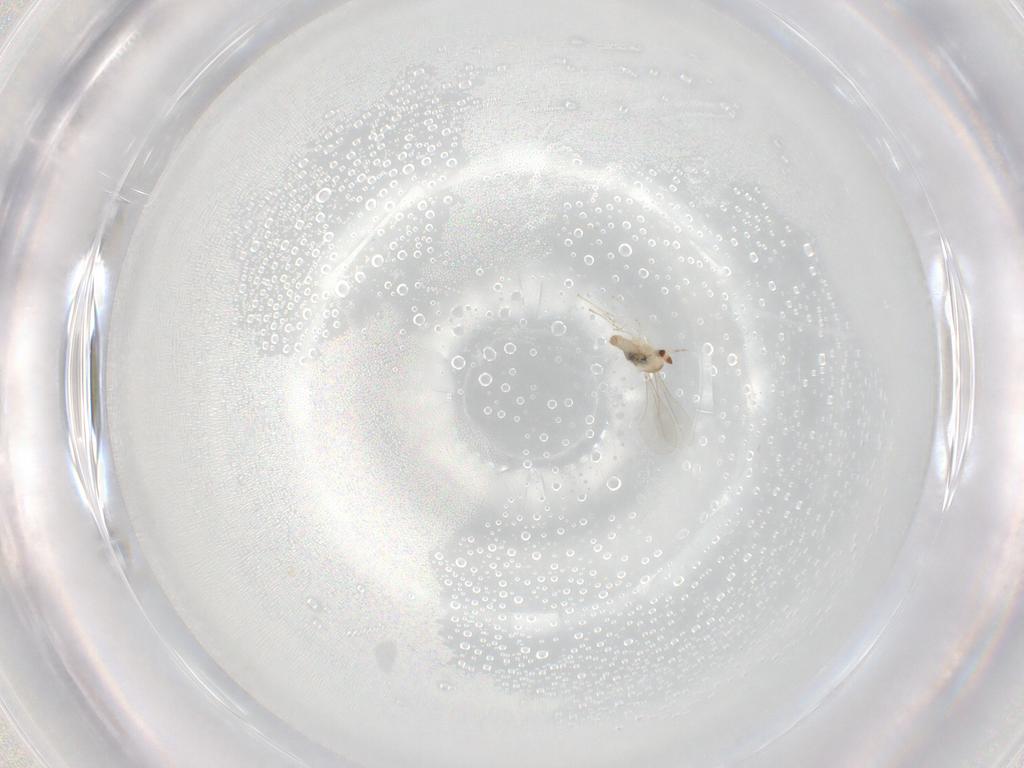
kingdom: Animalia
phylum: Arthropoda
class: Insecta
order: Diptera
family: Cecidomyiidae
